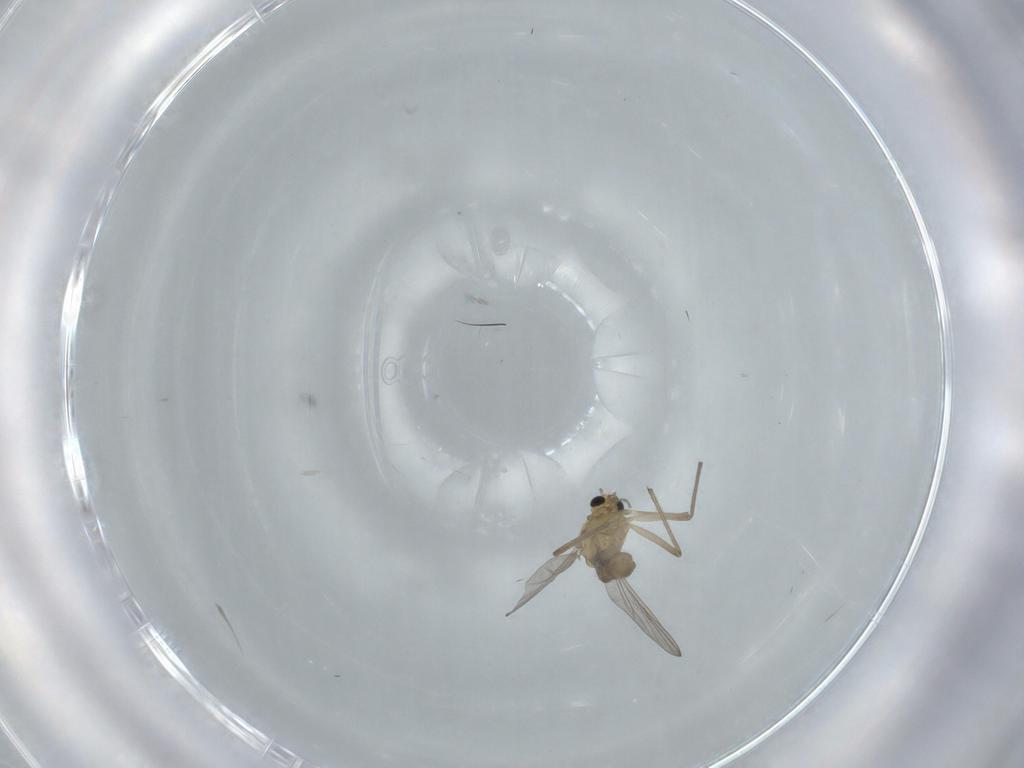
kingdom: Animalia
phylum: Arthropoda
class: Insecta
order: Diptera
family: Chironomidae
